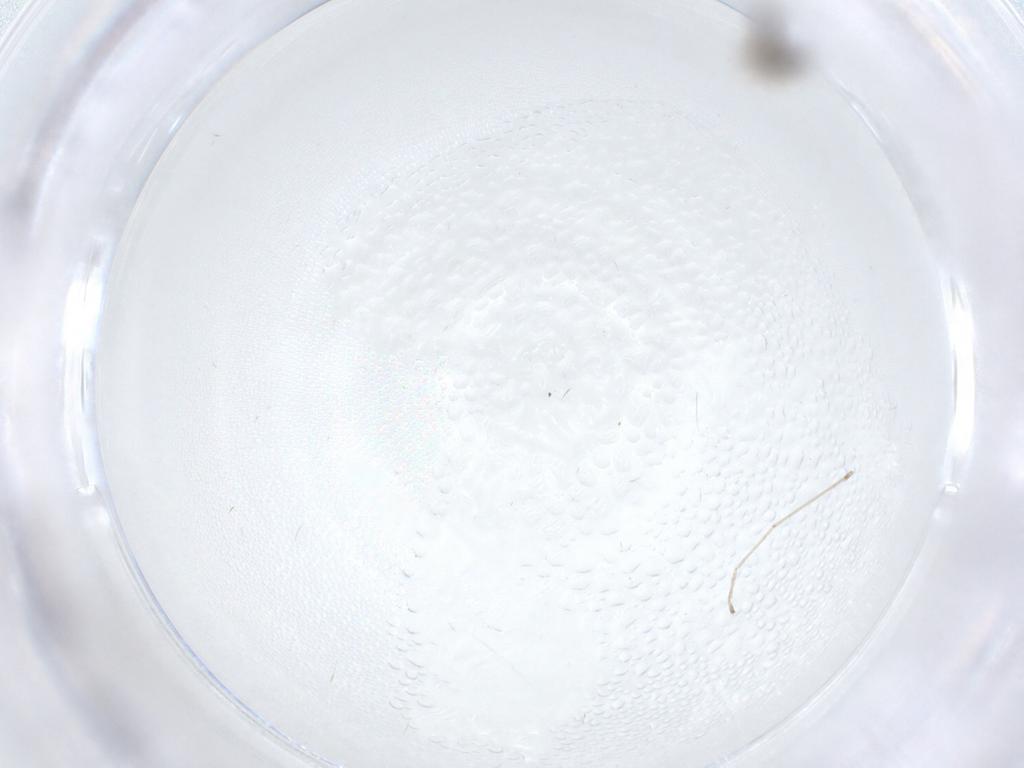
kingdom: Animalia
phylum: Arthropoda
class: Insecta
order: Diptera
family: Cecidomyiidae
